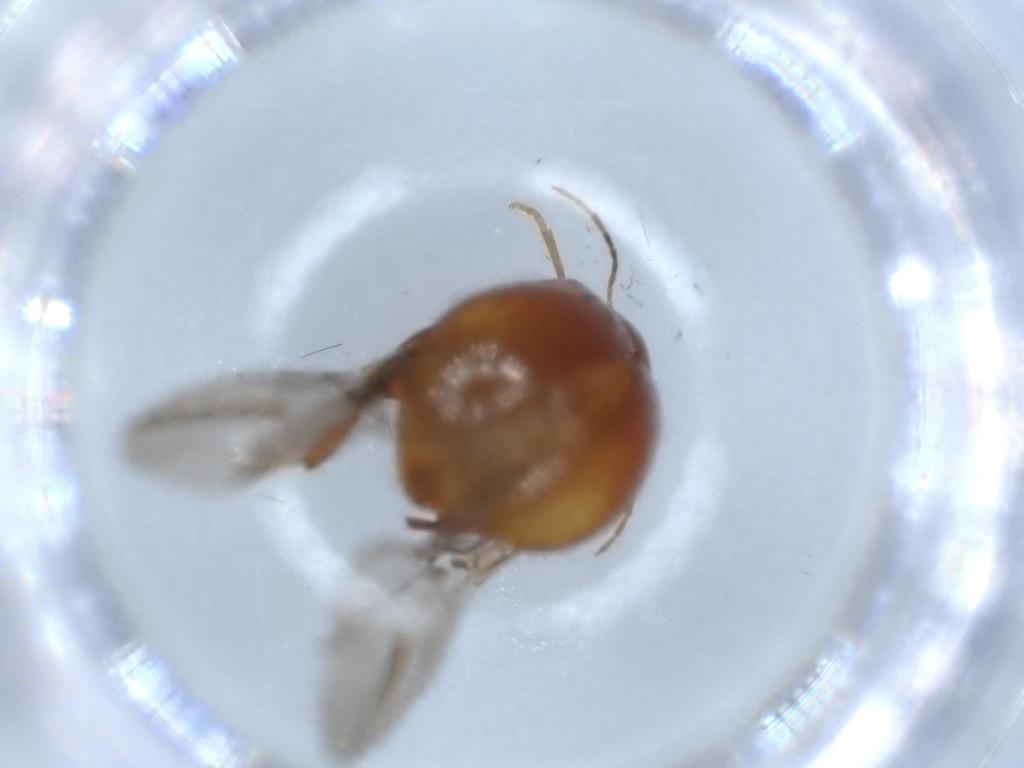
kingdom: Animalia
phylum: Arthropoda
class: Insecta
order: Coleoptera
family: Chrysomelidae
